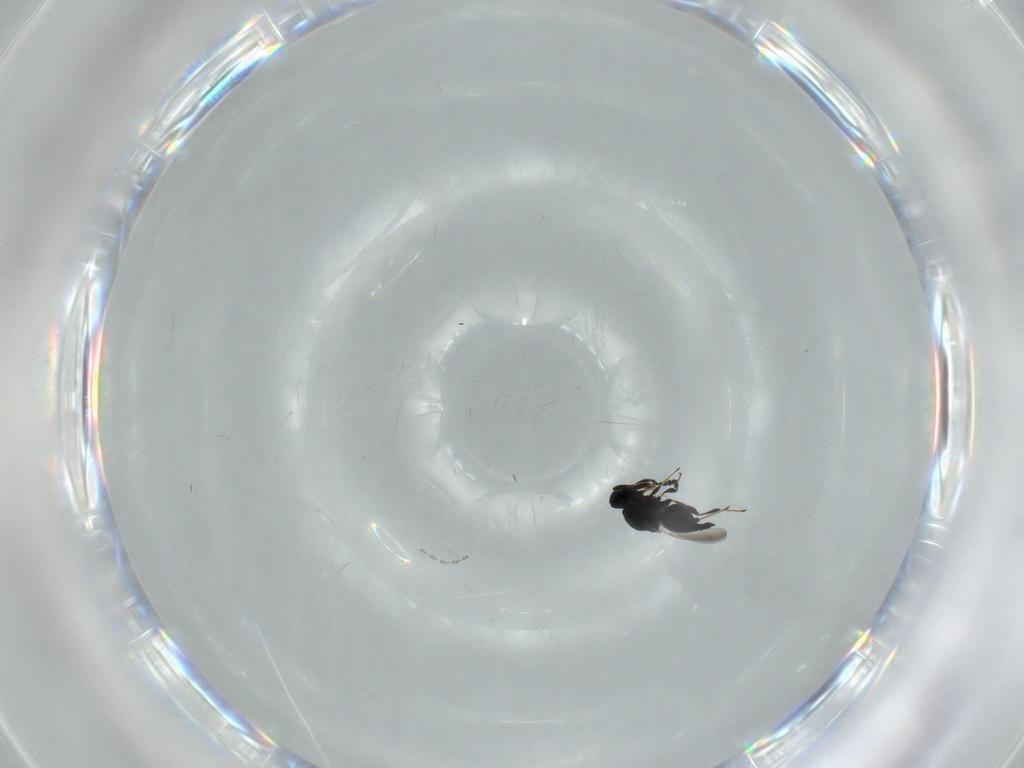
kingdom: Animalia
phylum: Arthropoda
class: Insecta
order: Hymenoptera
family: Platygastridae
